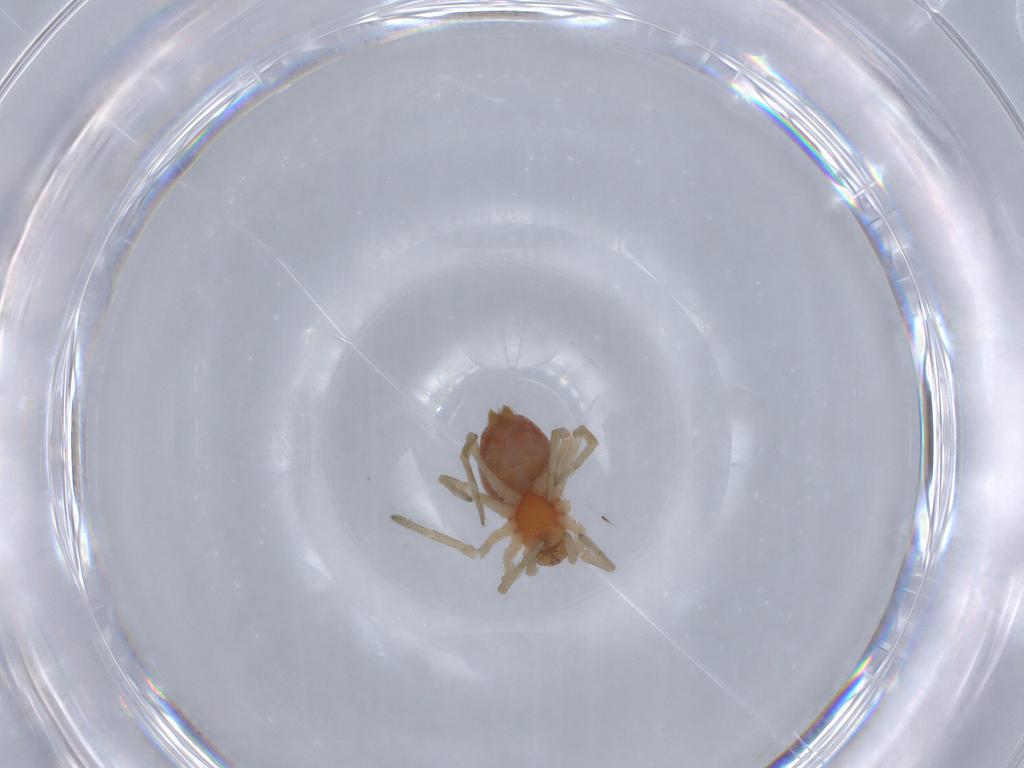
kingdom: Animalia
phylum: Arthropoda
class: Arachnida
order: Araneae
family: Dictynidae
